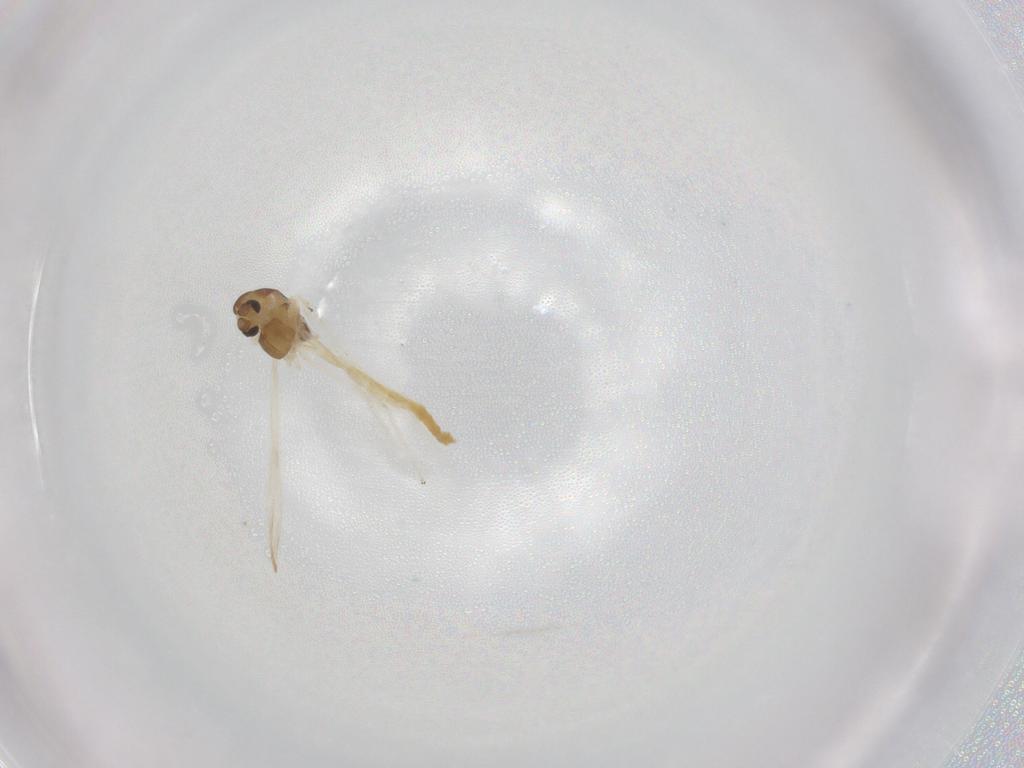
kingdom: Animalia
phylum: Arthropoda
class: Insecta
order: Diptera
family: Chironomidae
